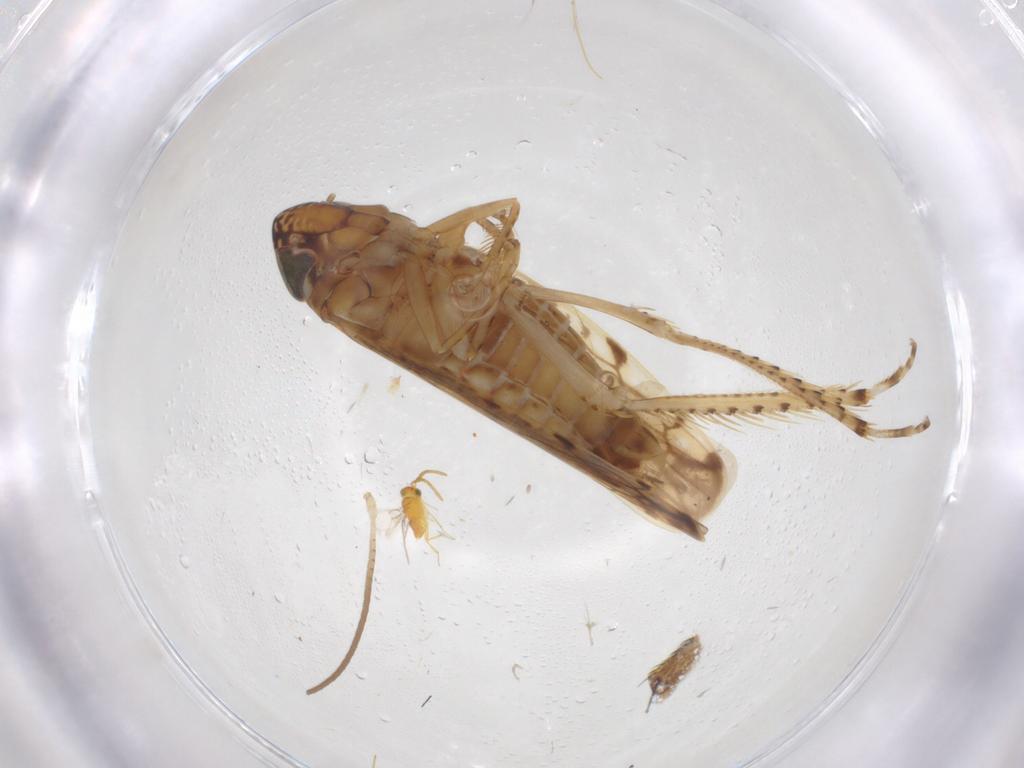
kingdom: Animalia
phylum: Arthropoda
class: Insecta
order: Hemiptera
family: Cicadellidae
